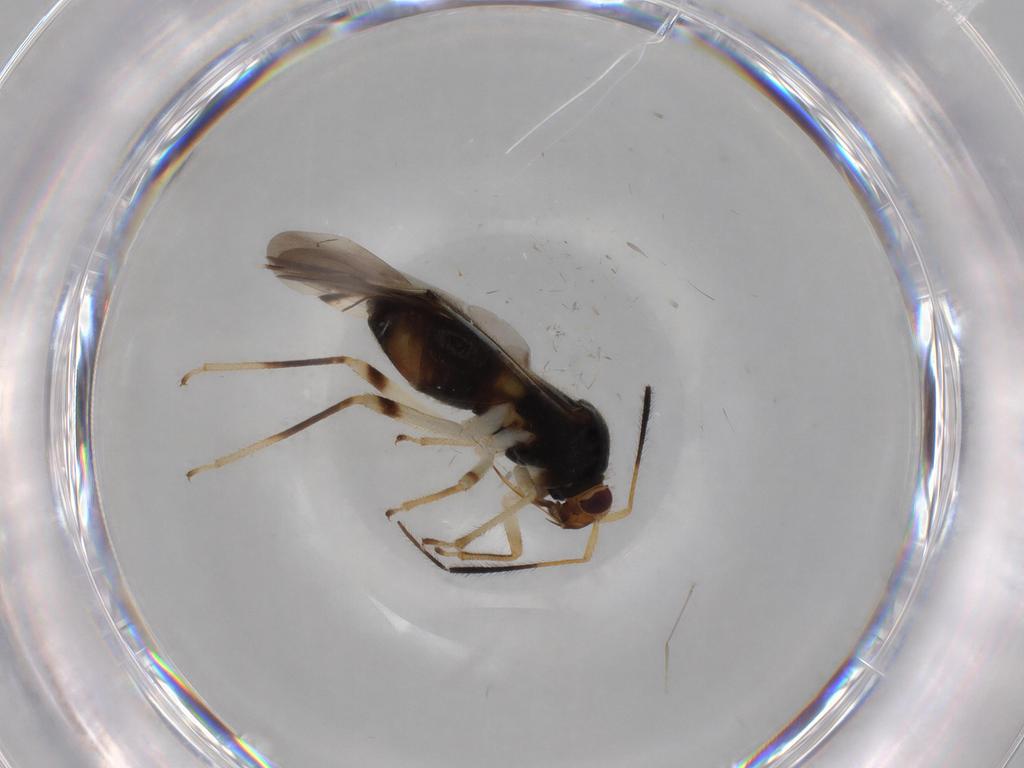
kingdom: Animalia
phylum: Arthropoda
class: Insecta
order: Hemiptera
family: Miridae
